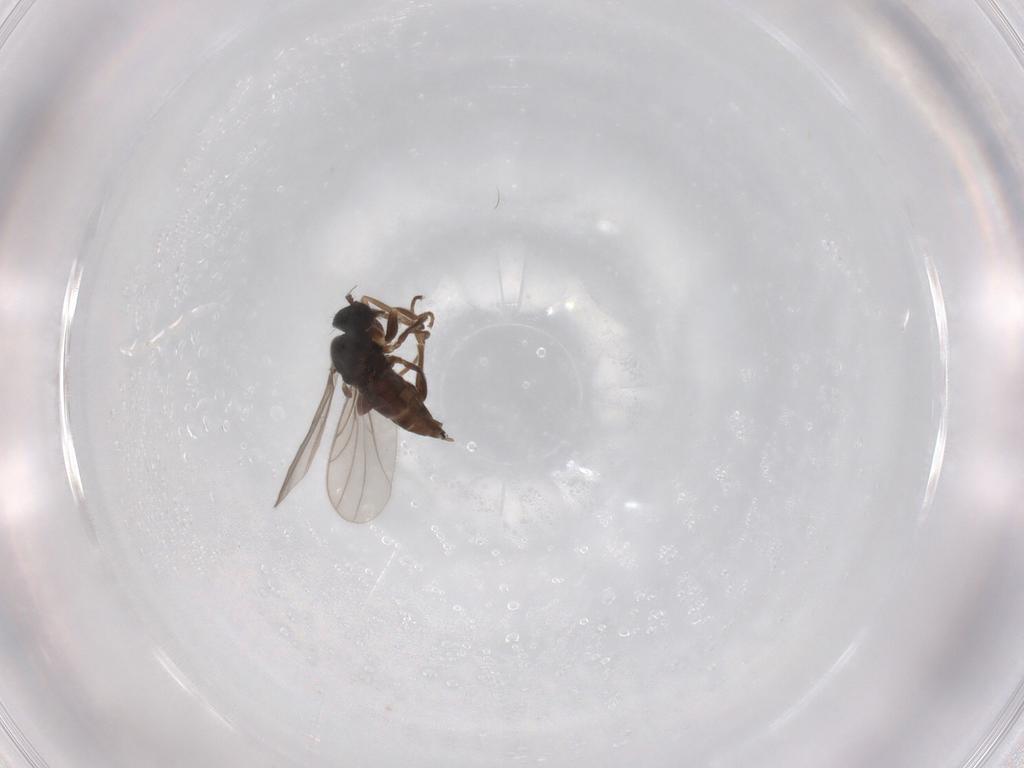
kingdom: Animalia
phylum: Arthropoda
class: Insecta
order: Diptera
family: Hybotidae
